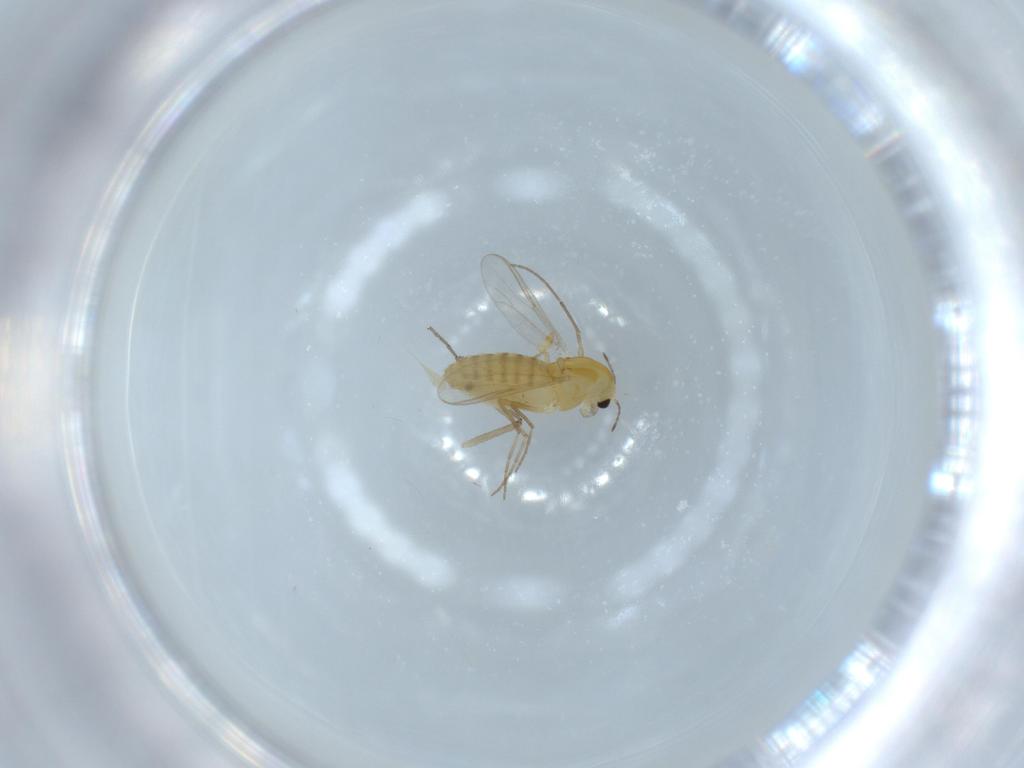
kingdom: Animalia
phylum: Arthropoda
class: Insecta
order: Diptera
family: Chironomidae
